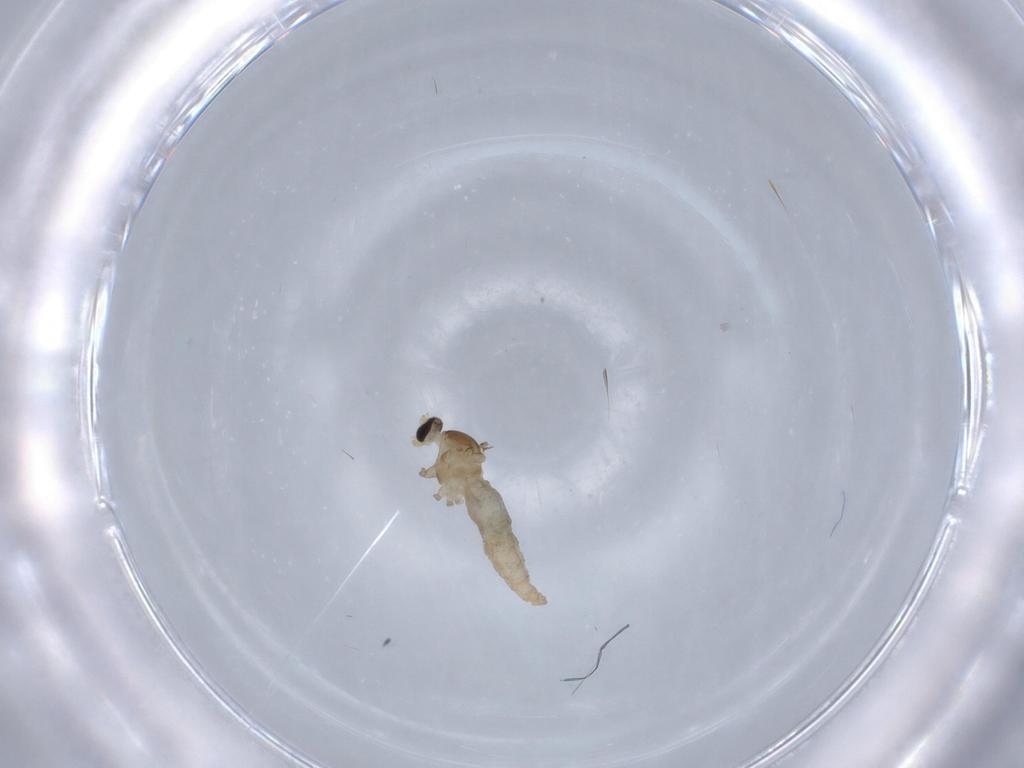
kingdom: Animalia
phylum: Arthropoda
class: Insecta
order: Diptera
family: Cecidomyiidae
